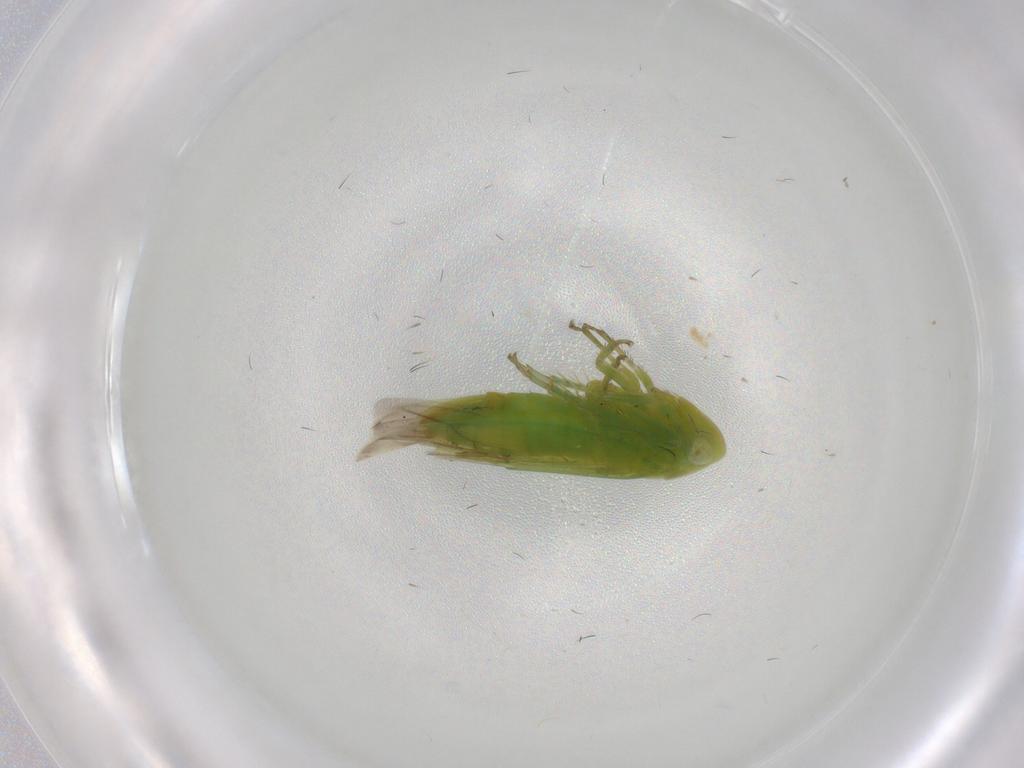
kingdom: Animalia
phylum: Arthropoda
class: Insecta
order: Hemiptera
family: Cicadellidae
